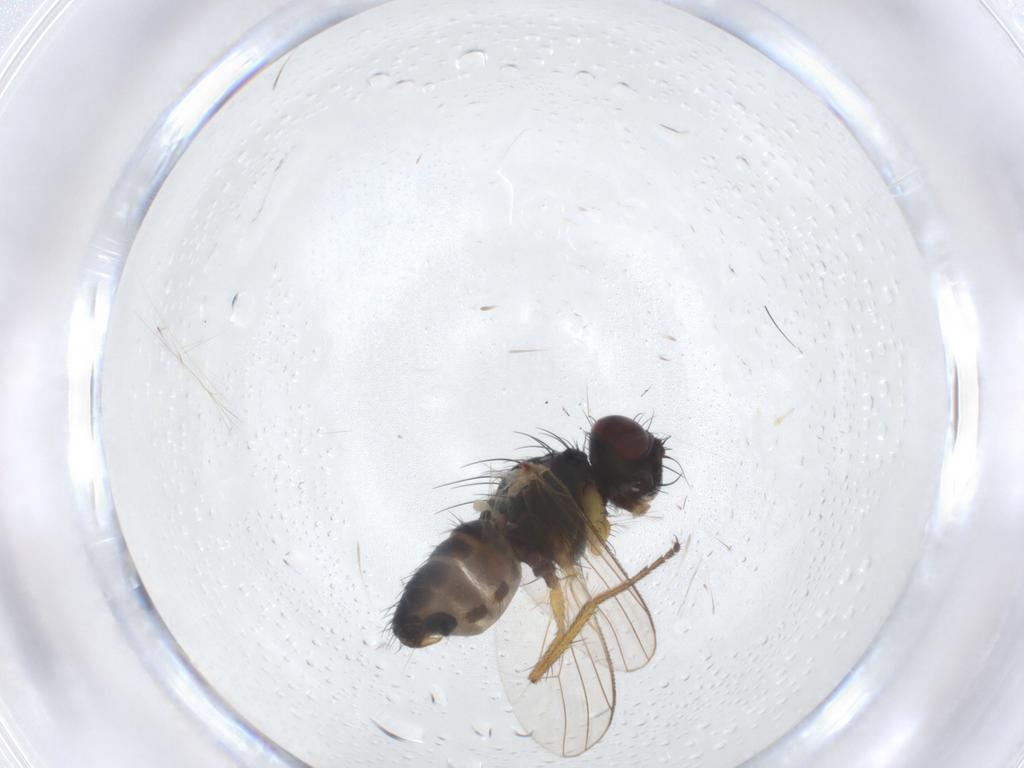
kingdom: Animalia
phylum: Arthropoda
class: Insecta
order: Diptera
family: Muscidae
